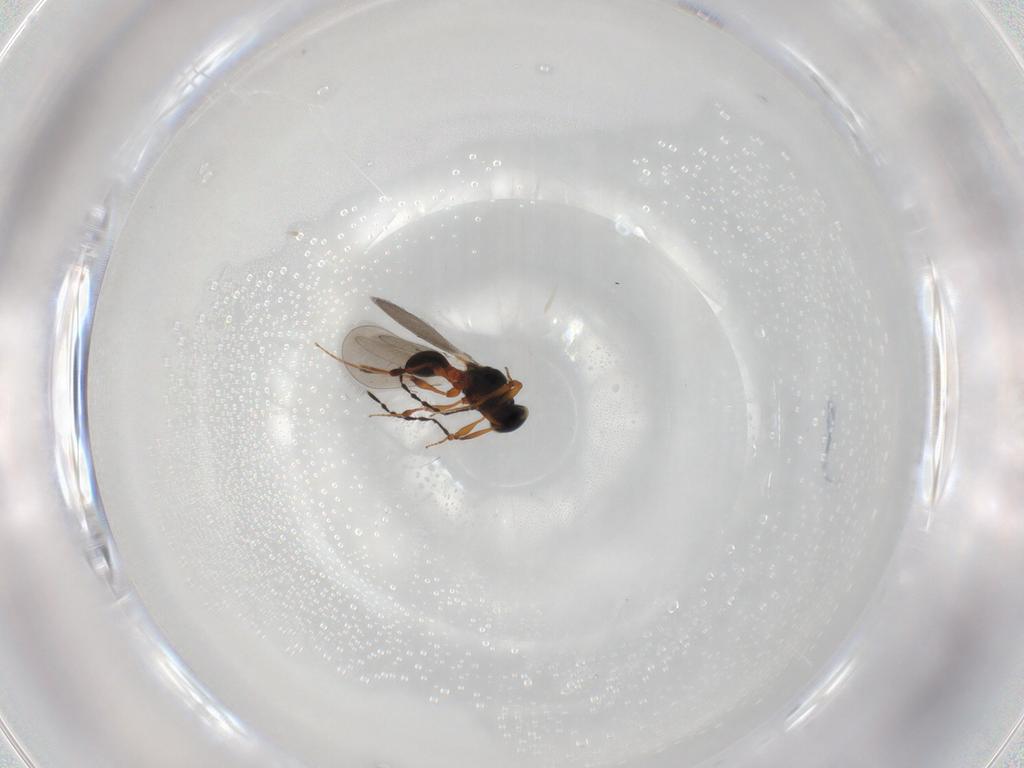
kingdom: Animalia
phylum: Arthropoda
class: Insecta
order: Hymenoptera
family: Platygastridae
